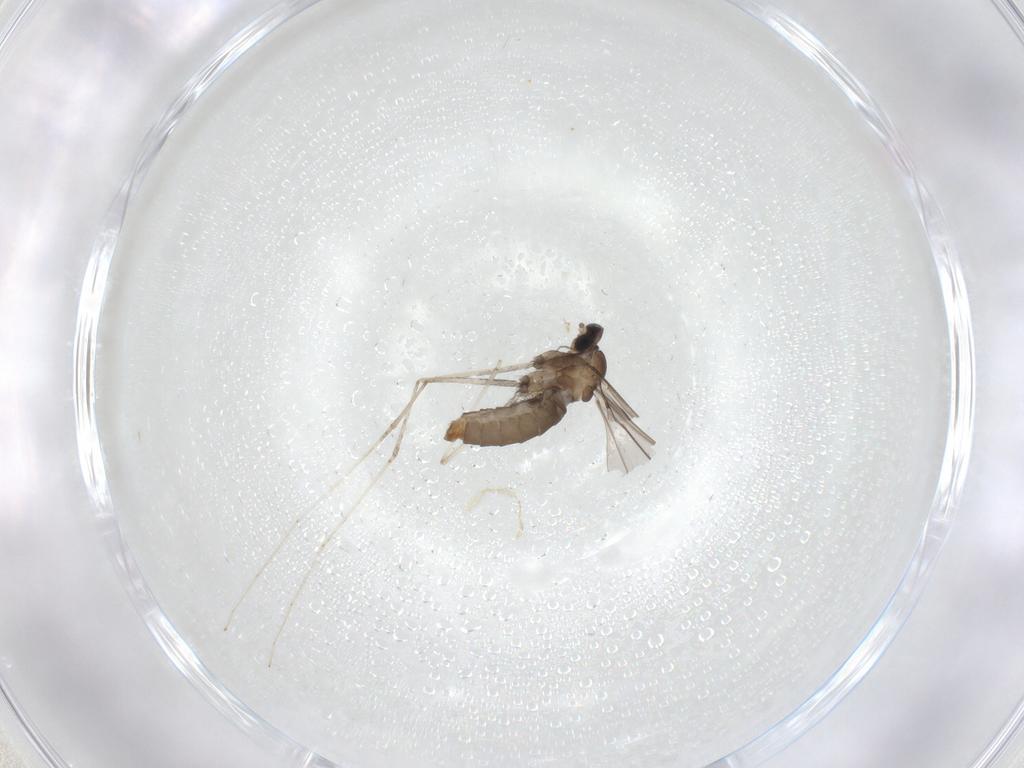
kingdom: Animalia
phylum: Arthropoda
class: Insecta
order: Diptera
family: Cecidomyiidae
